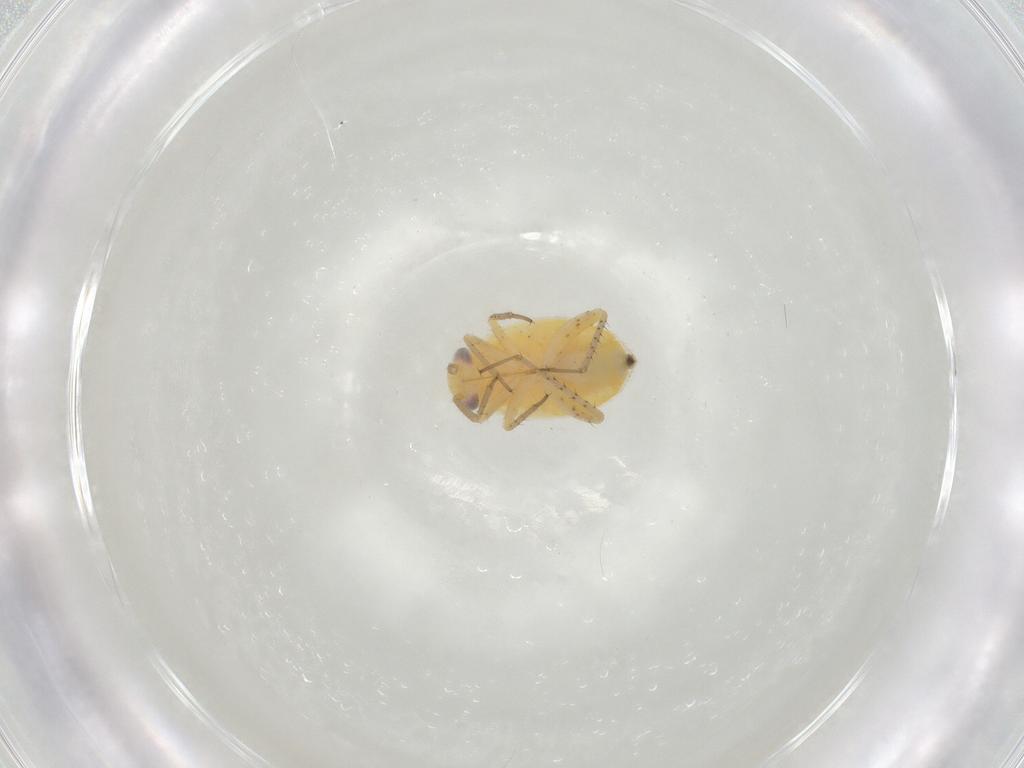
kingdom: Animalia
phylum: Arthropoda
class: Insecta
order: Hemiptera
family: Miridae
